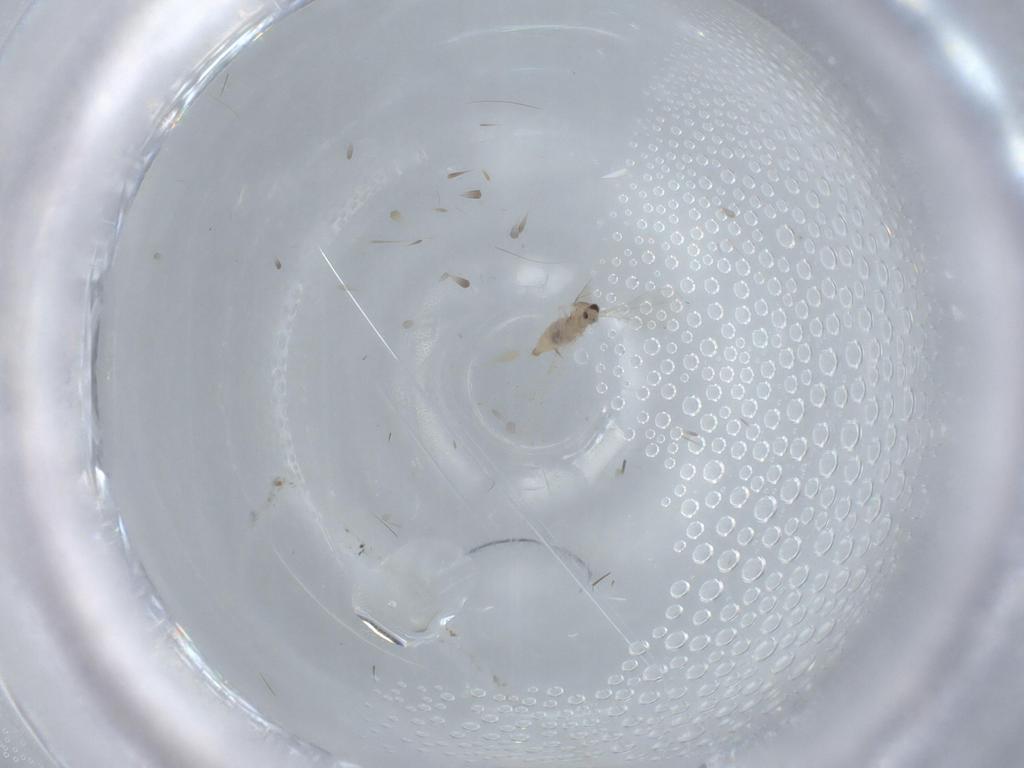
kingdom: Animalia
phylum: Arthropoda
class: Insecta
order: Diptera
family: Cecidomyiidae
